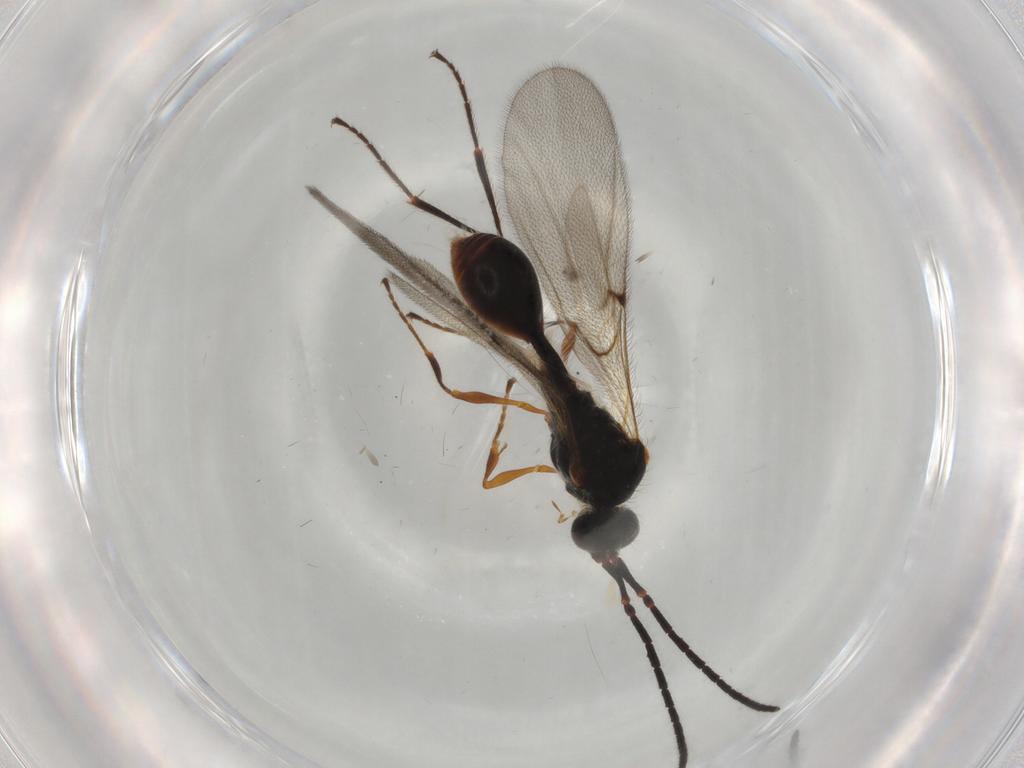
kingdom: Animalia
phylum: Arthropoda
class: Insecta
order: Hymenoptera
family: Diapriidae
